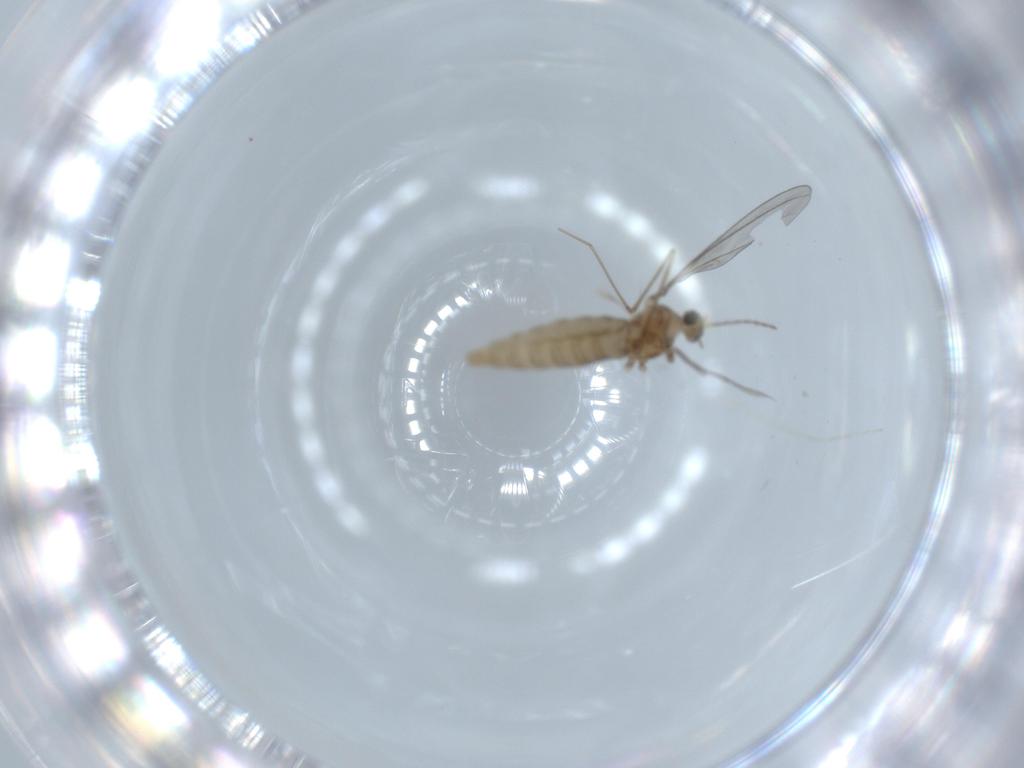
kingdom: Animalia
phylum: Arthropoda
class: Insecta
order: Diptera
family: Cecidomyiidae
